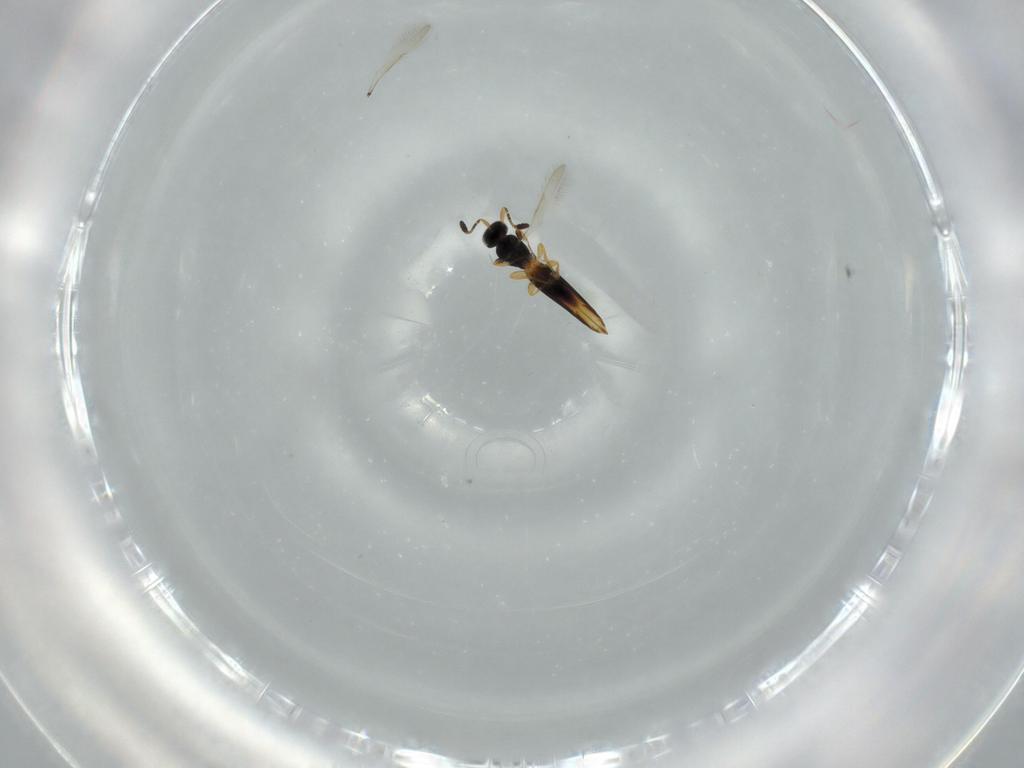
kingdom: Animalia
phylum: Arthropoda
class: Insecta
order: Hymenoptera
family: Scelionidae
